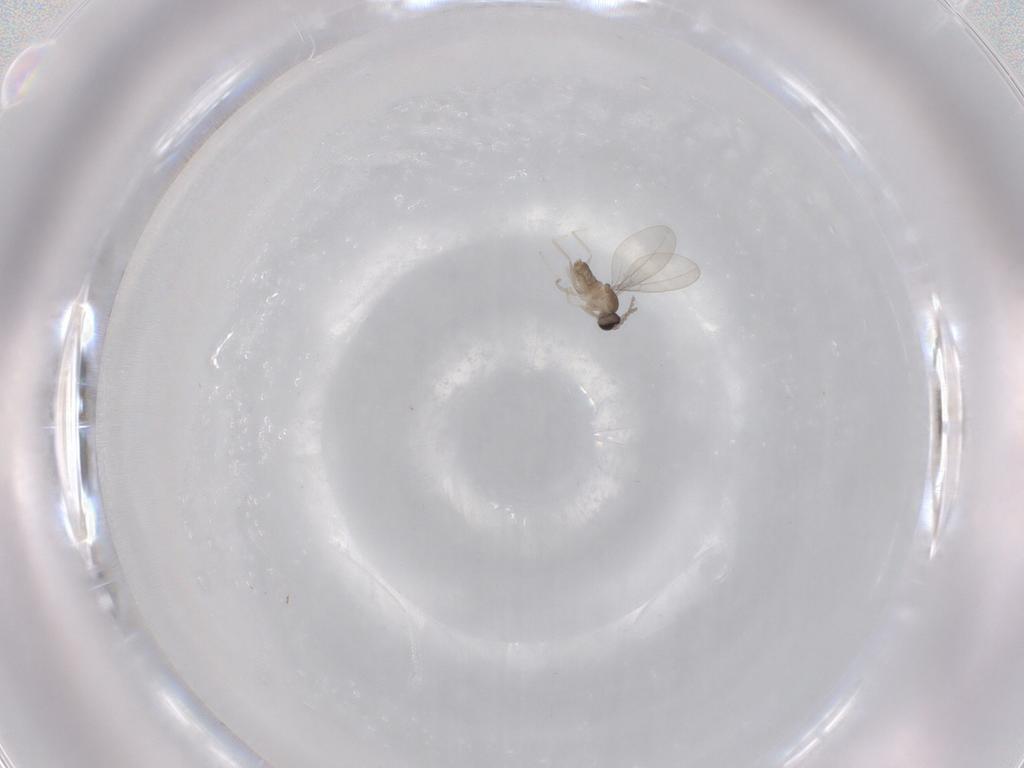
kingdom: Animalia
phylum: Arthropoda
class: Insecta
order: Diptera
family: Cecidomyiidae
